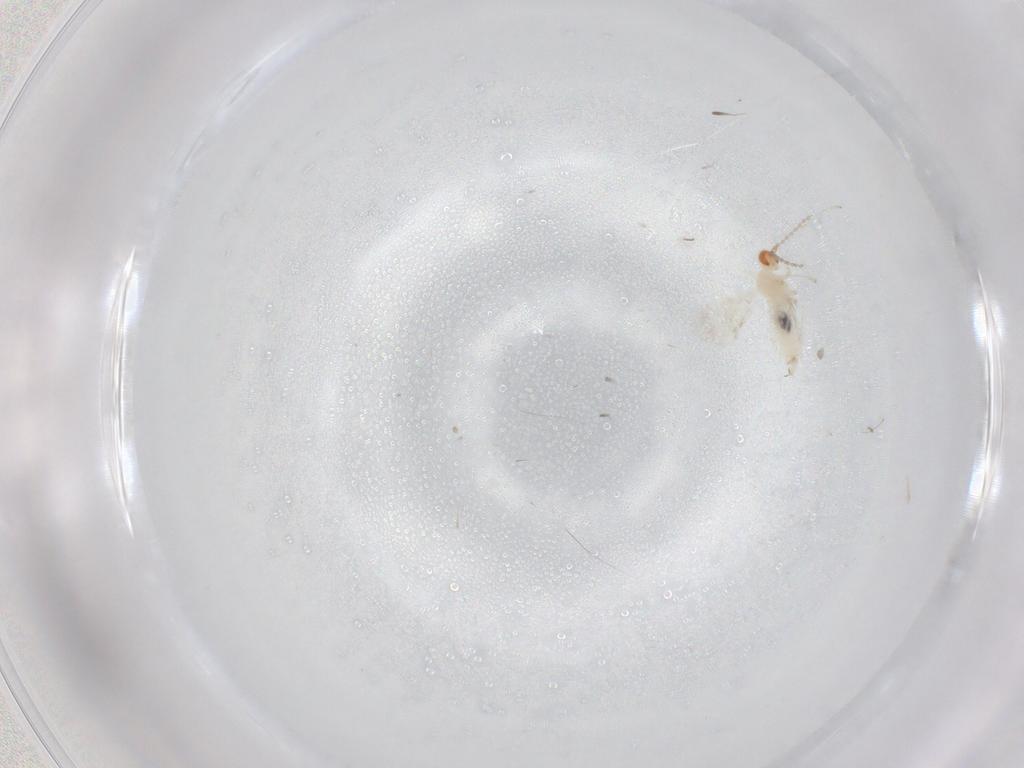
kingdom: Animalia
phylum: Arthropoda
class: Insecta
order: Diptera
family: Cecidomyiidae
